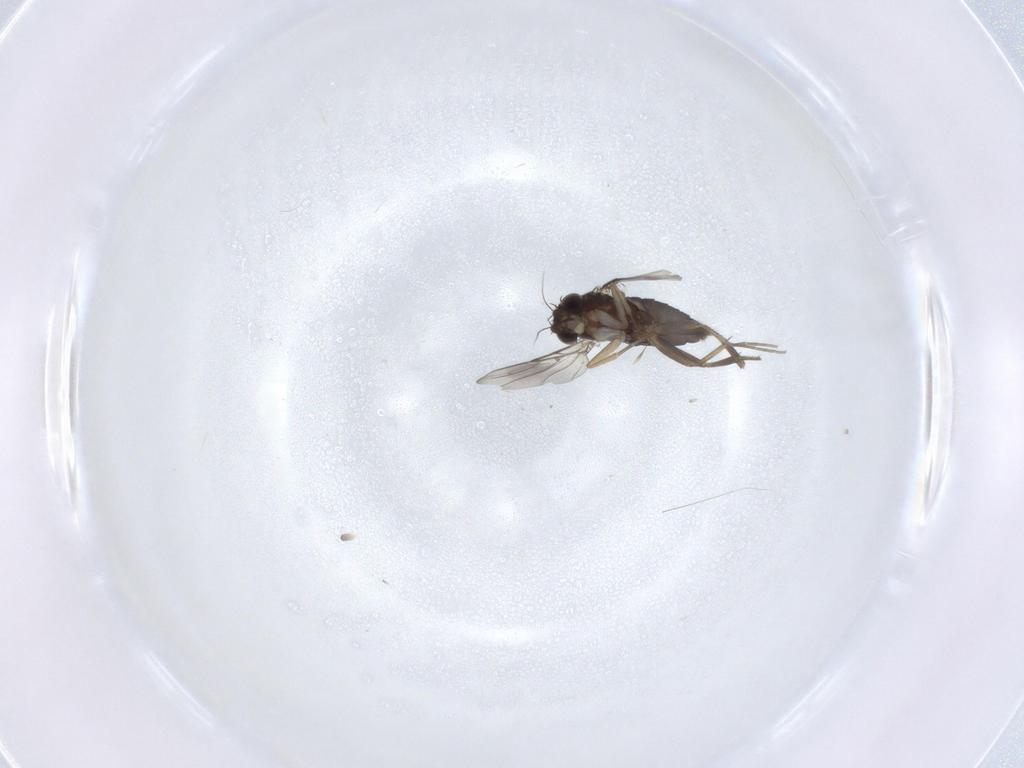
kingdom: Animalia
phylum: Arthropoda
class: Insecta
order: Diptera
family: Phoridae
